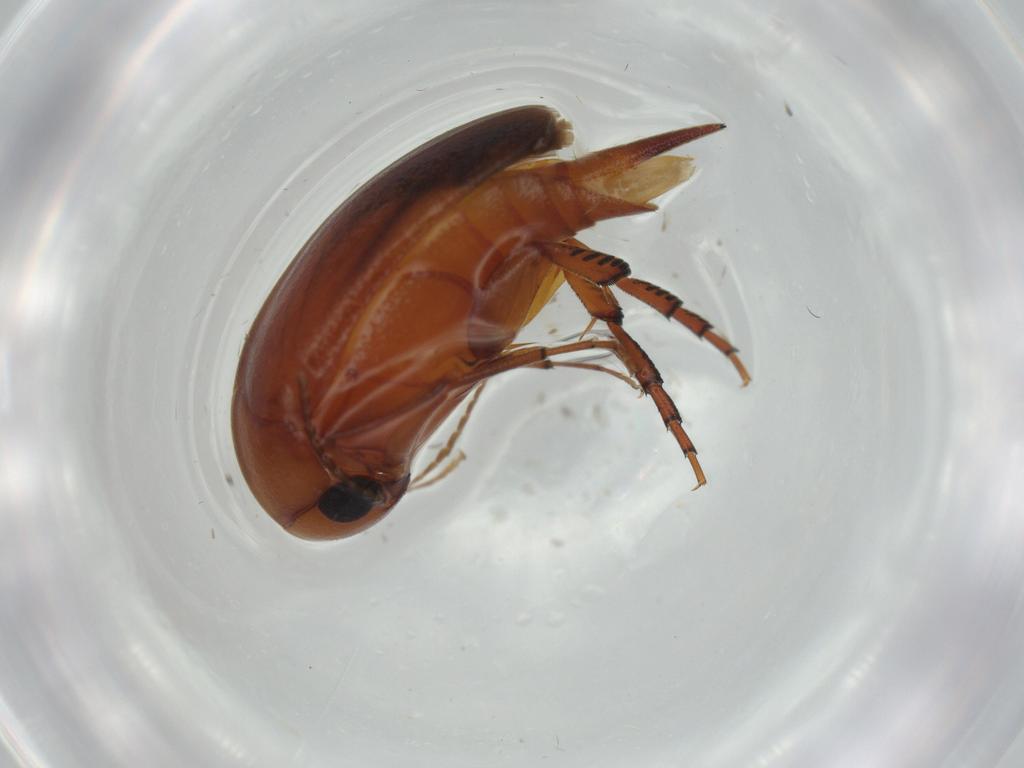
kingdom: Animalia
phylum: Arthropoda
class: Insecta
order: Coleoptera
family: Mordellidae
